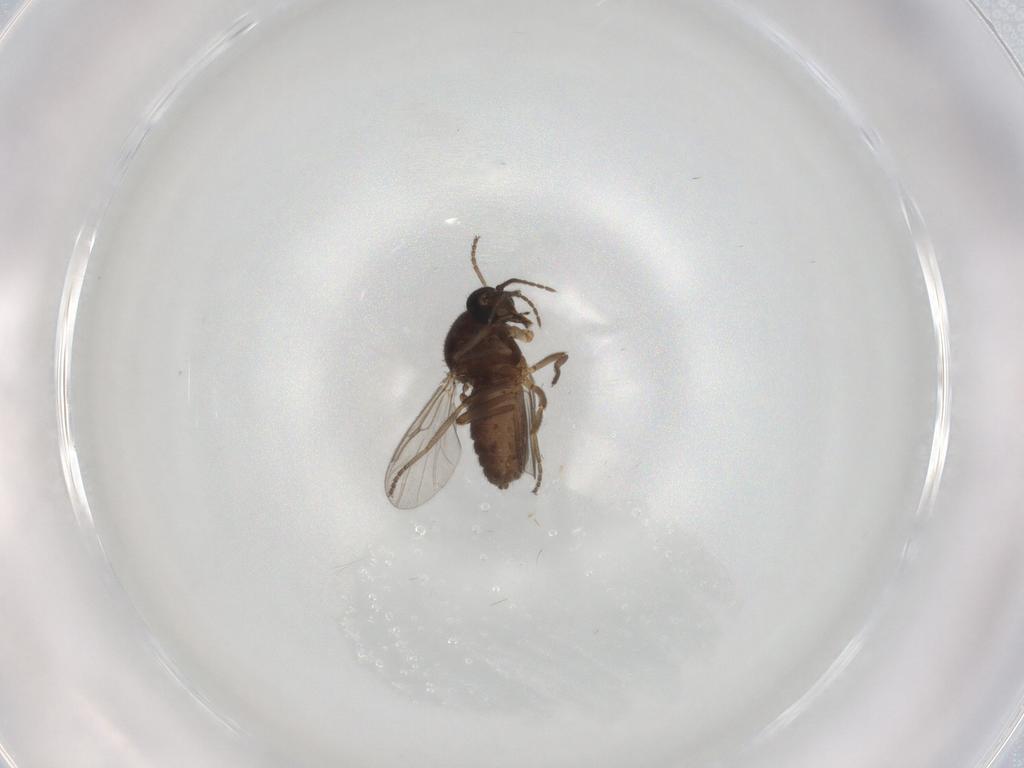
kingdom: Animalia
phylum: Arthropoda
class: Insecta
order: Diptera
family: Ceratopogonidae
